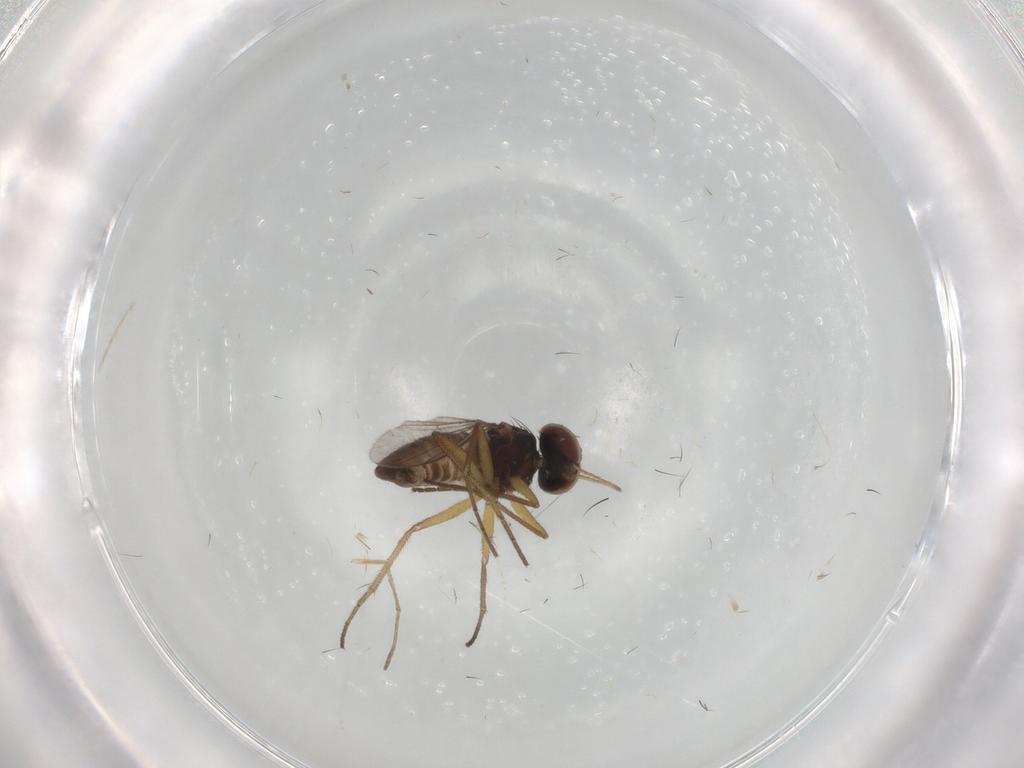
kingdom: Animalia
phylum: Arthropoda
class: Insecta
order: Diptera
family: Dolichopodidae
